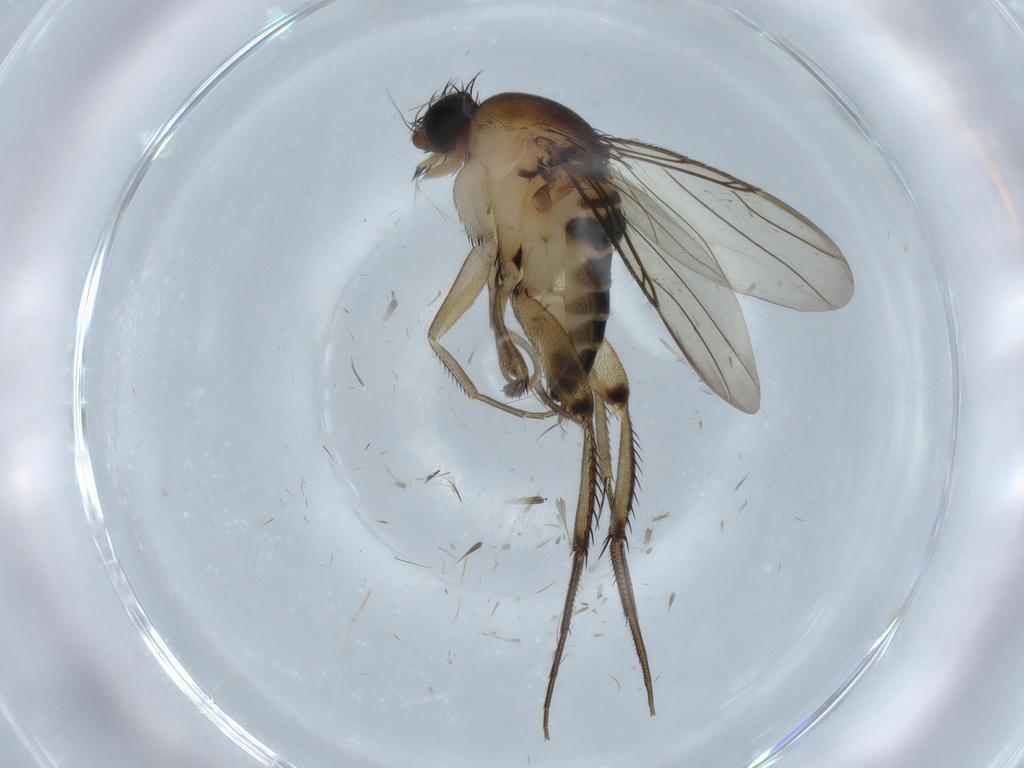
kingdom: Animalia
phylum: Arthropoda
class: Insecta
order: Diptera
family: Phoridae
